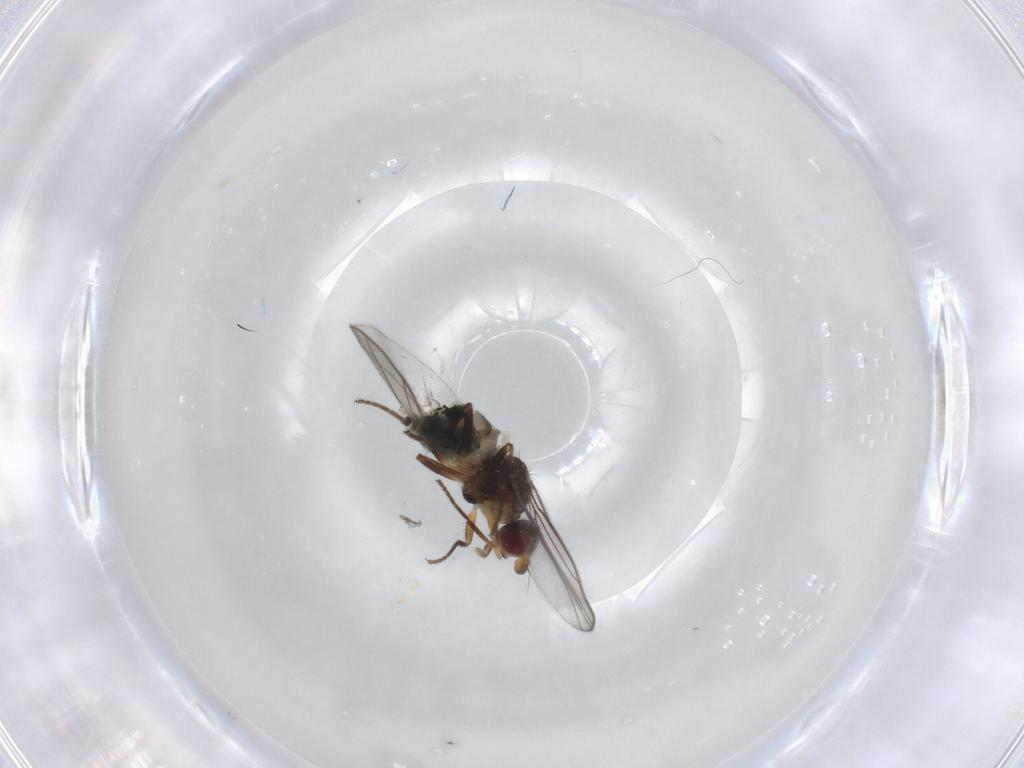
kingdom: Animalia
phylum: Arthropoda
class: Insecta
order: Diptera
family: Chloropidae
